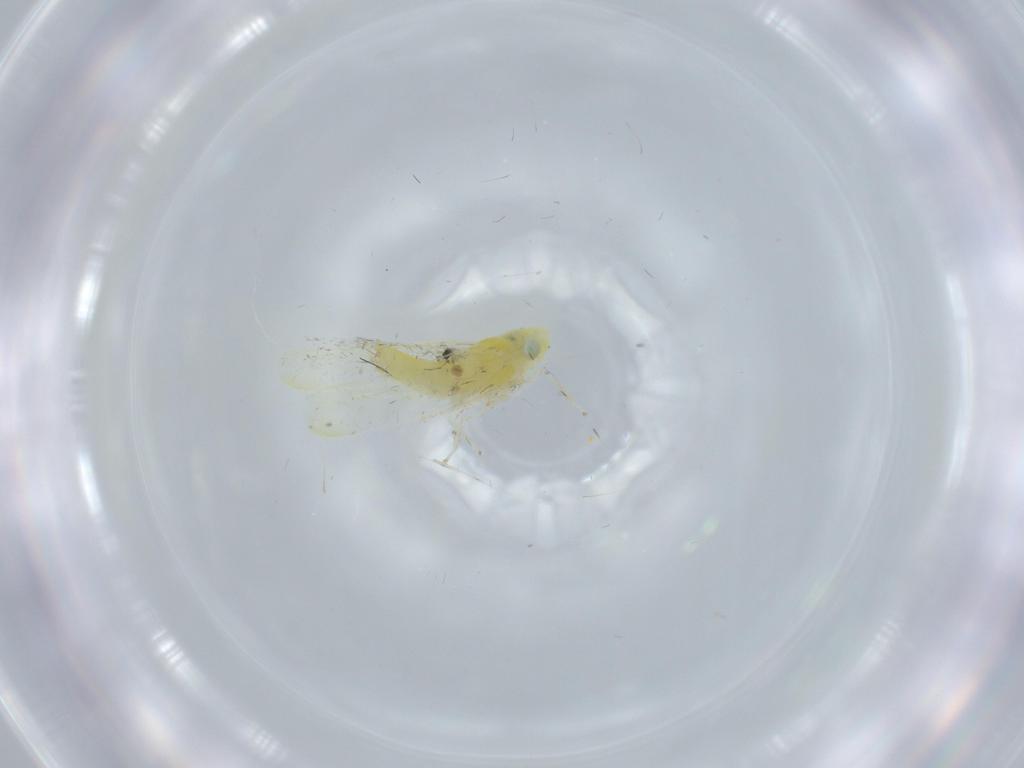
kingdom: Animalia
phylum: Arthropoda
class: Insecta
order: Hemiptera
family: Cicadellidae
